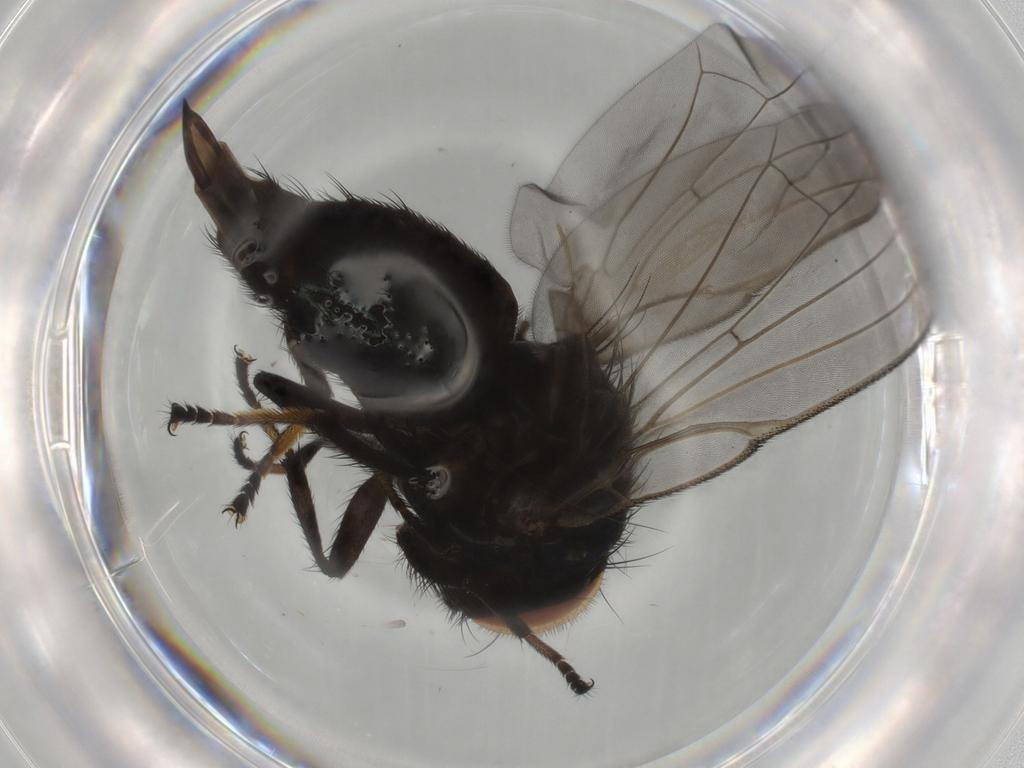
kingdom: Animalia
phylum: Arthropoda
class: Insecta
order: Diptera
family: Lonchaeidae
